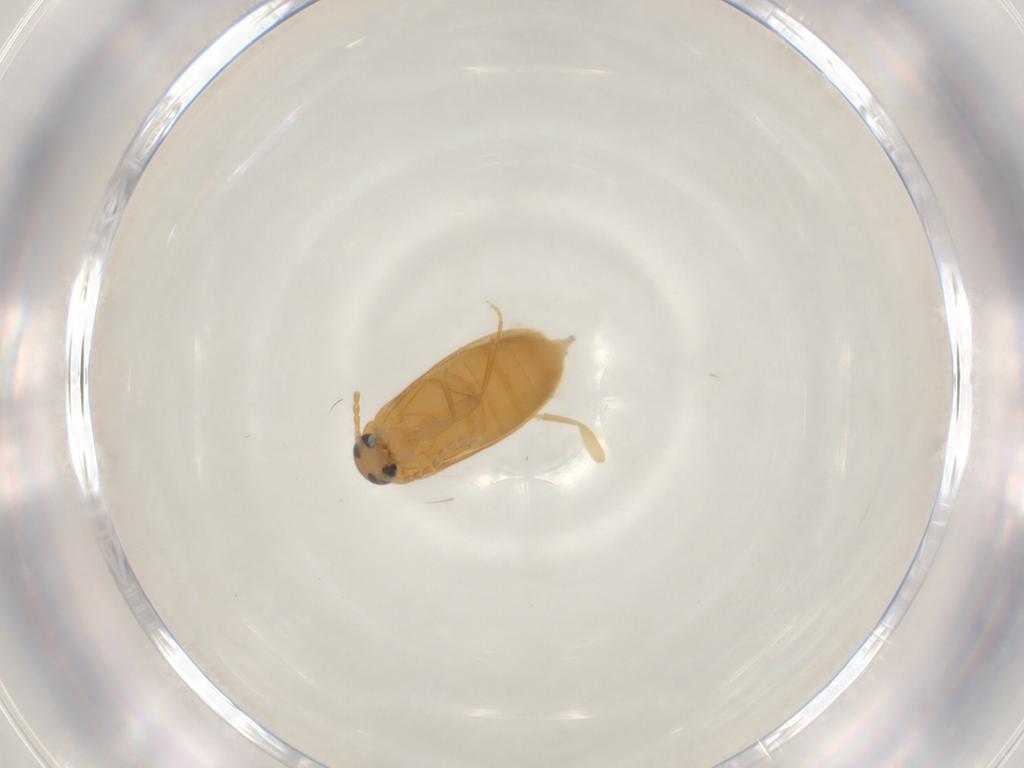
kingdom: Animalia
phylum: Arthropoda
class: Insecta
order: Coleoptera
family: Scraptiidae
